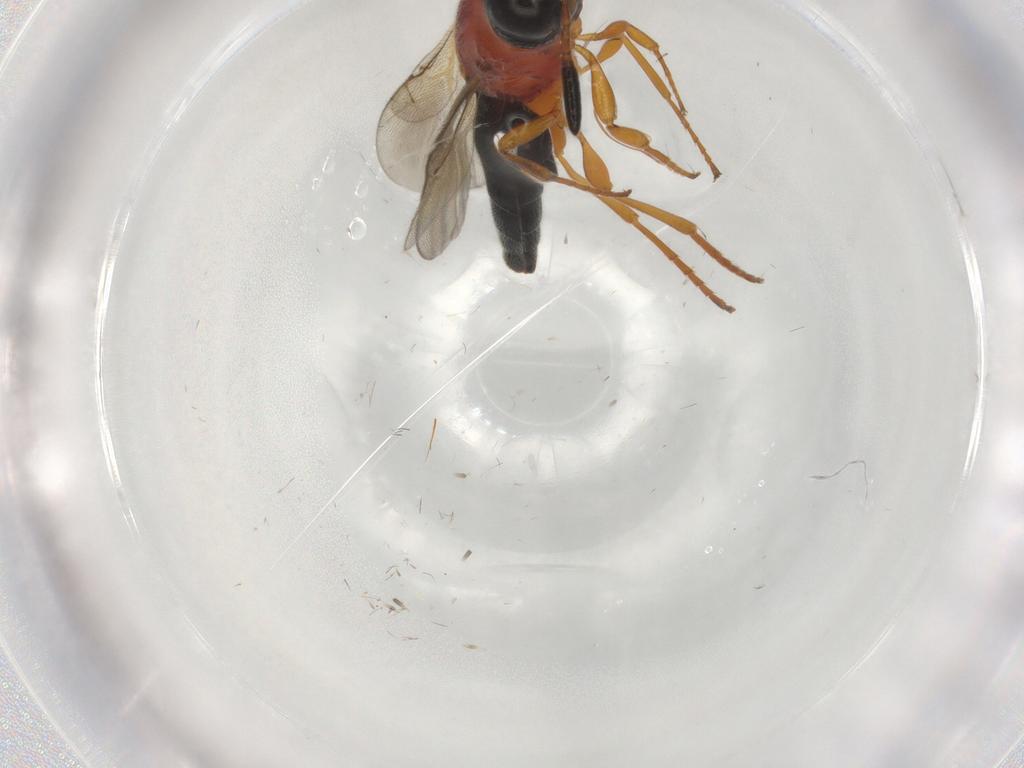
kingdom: Animalia
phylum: Arthropoda
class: Insecta
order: Hymenoptera
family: Scelionidae
